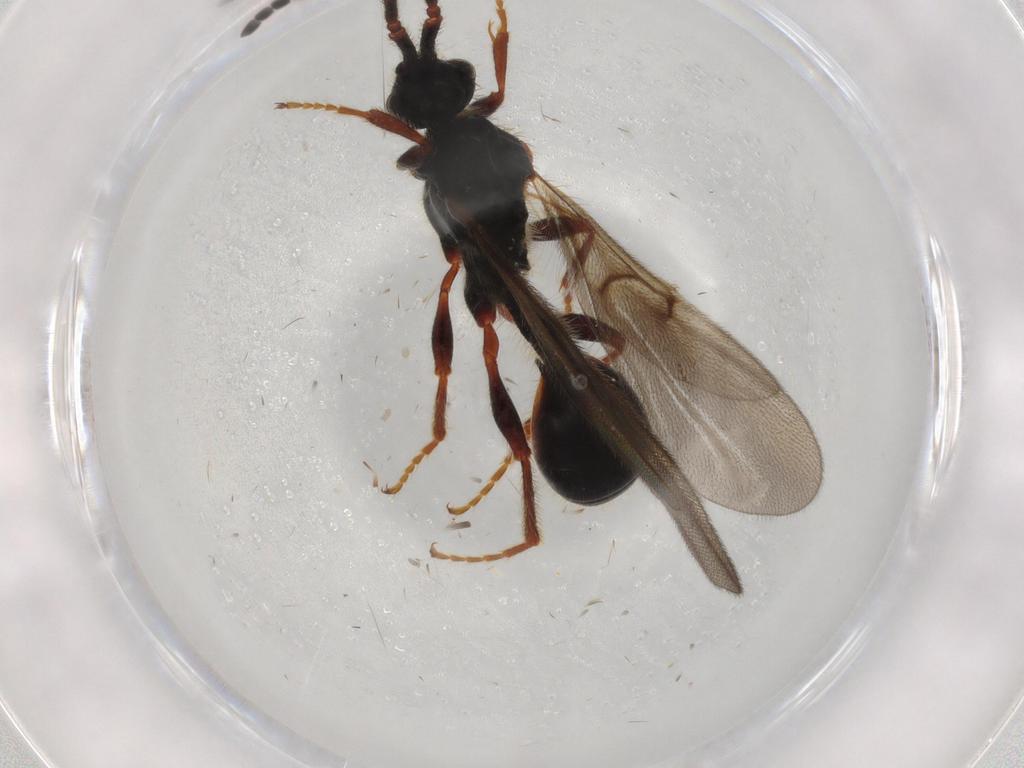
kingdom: Animalia
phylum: Arthropoda
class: Insecta
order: Hymenoptera
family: Diapriidae
